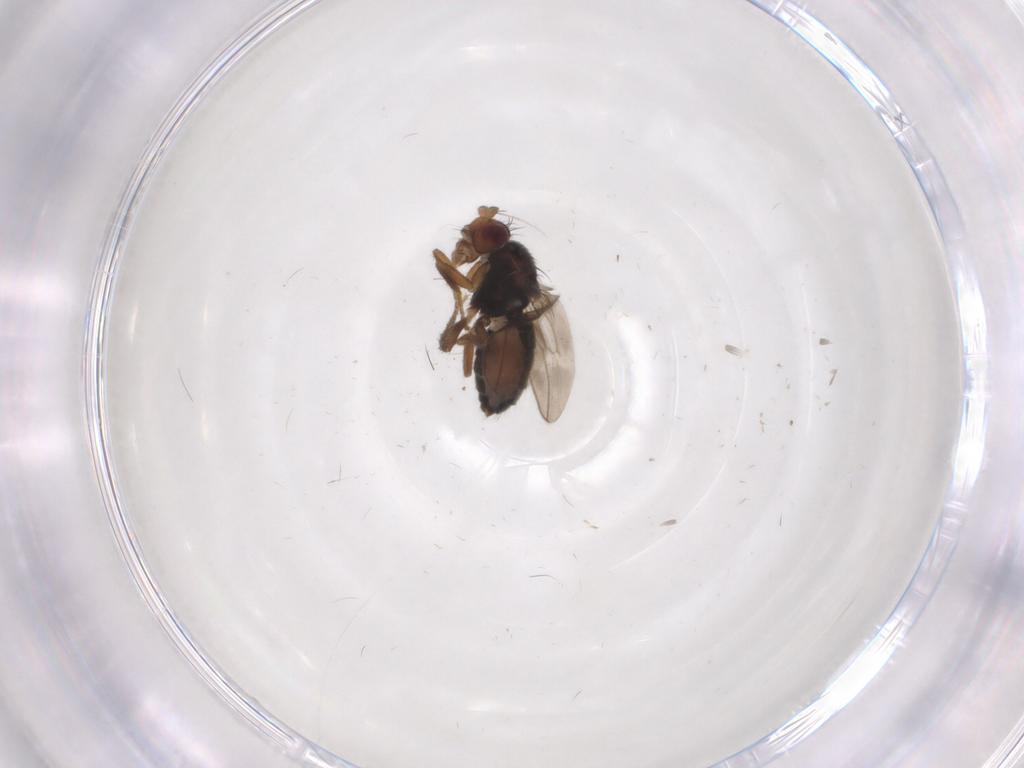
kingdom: Animalia
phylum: Arthropoda
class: Insecta
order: Diptera
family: Sphaeroceridae
